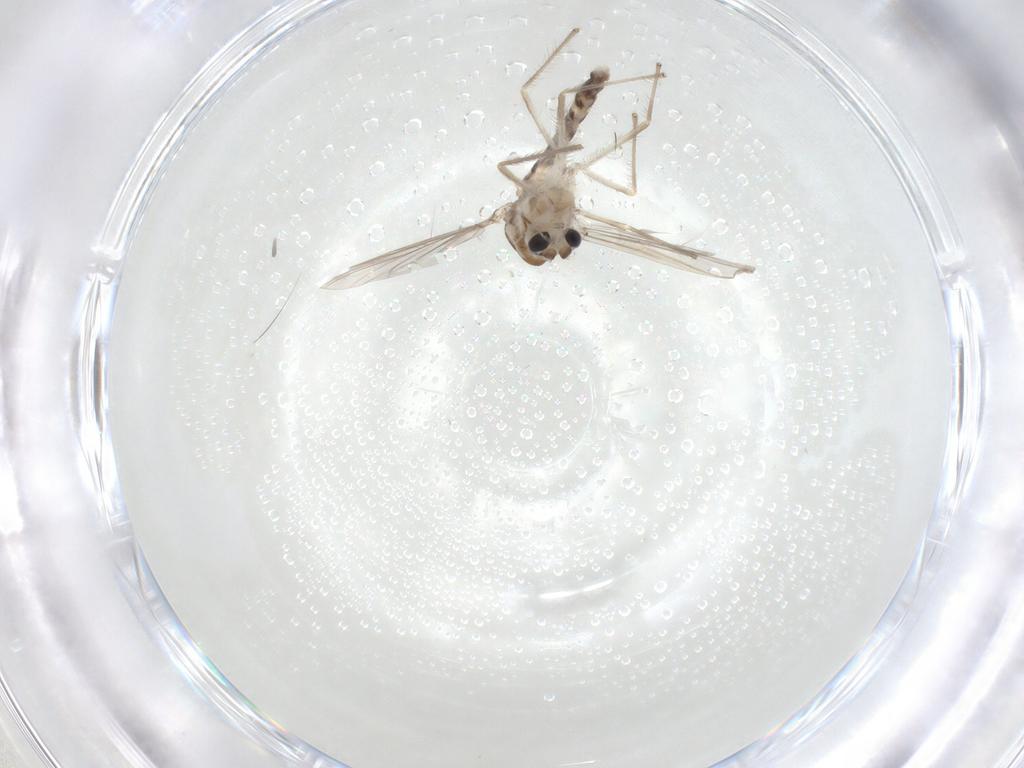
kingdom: Animalia
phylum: Arthropoda
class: Insecta
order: Diptera
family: Chironomidae
